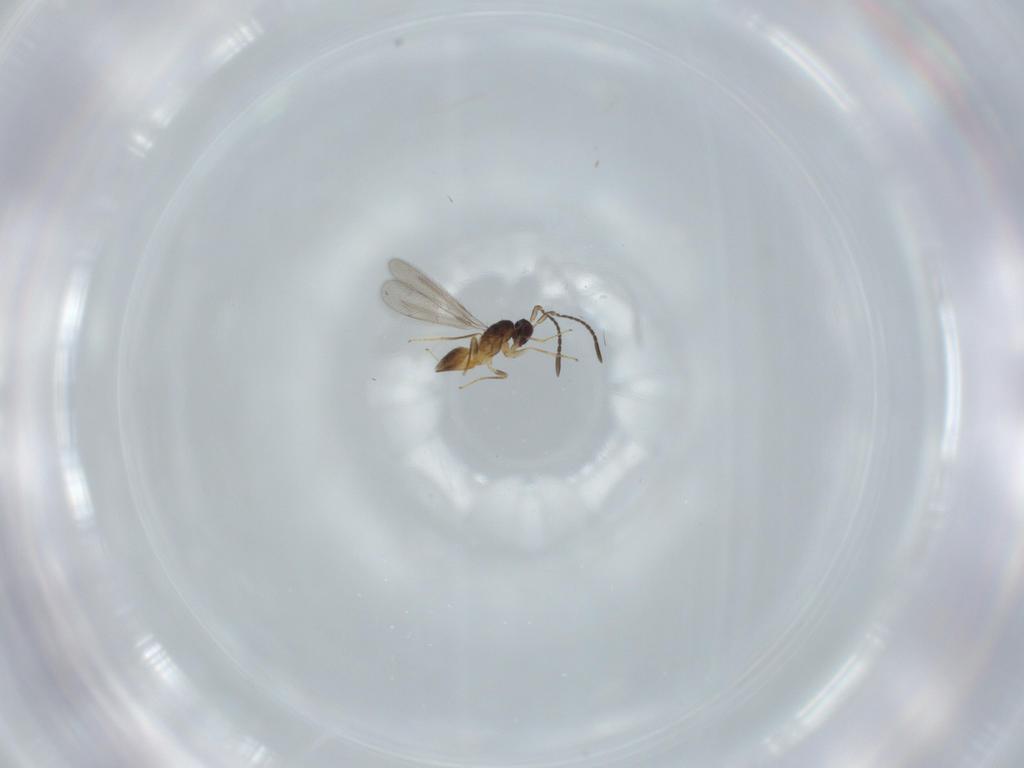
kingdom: Animalia
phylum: Arthropoda
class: Insecta
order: Hymenoptera
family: Mymaridae
